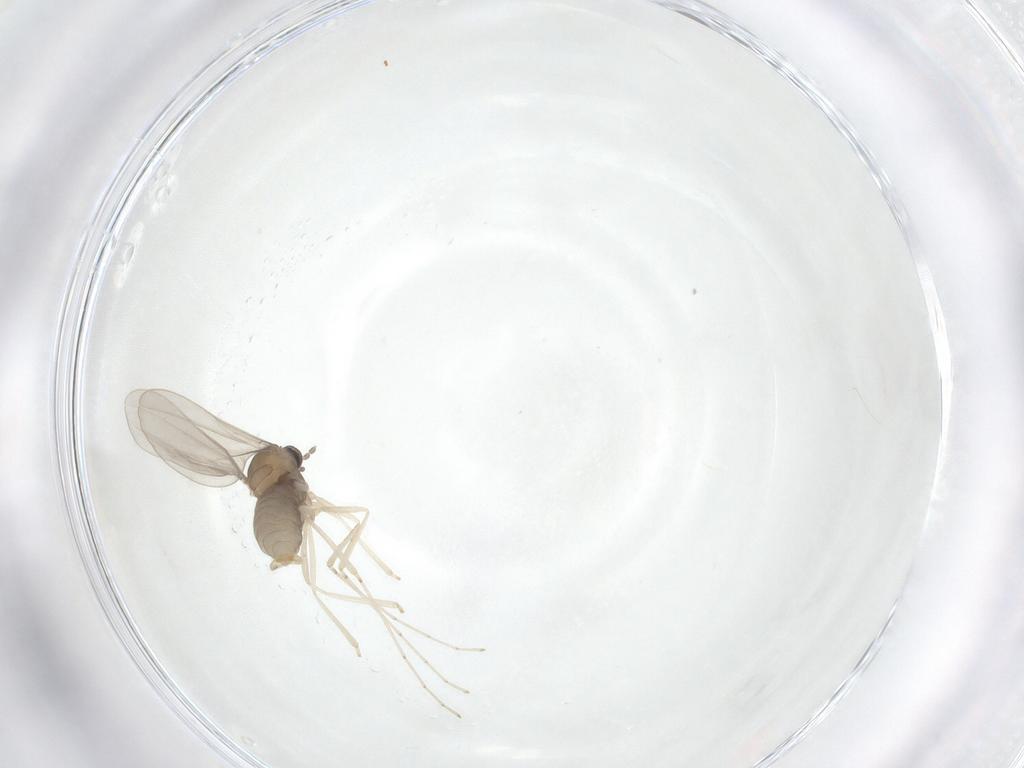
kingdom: Animalia
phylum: Arthropoda
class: Insecta
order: Diptera
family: Cecidomyiidae
